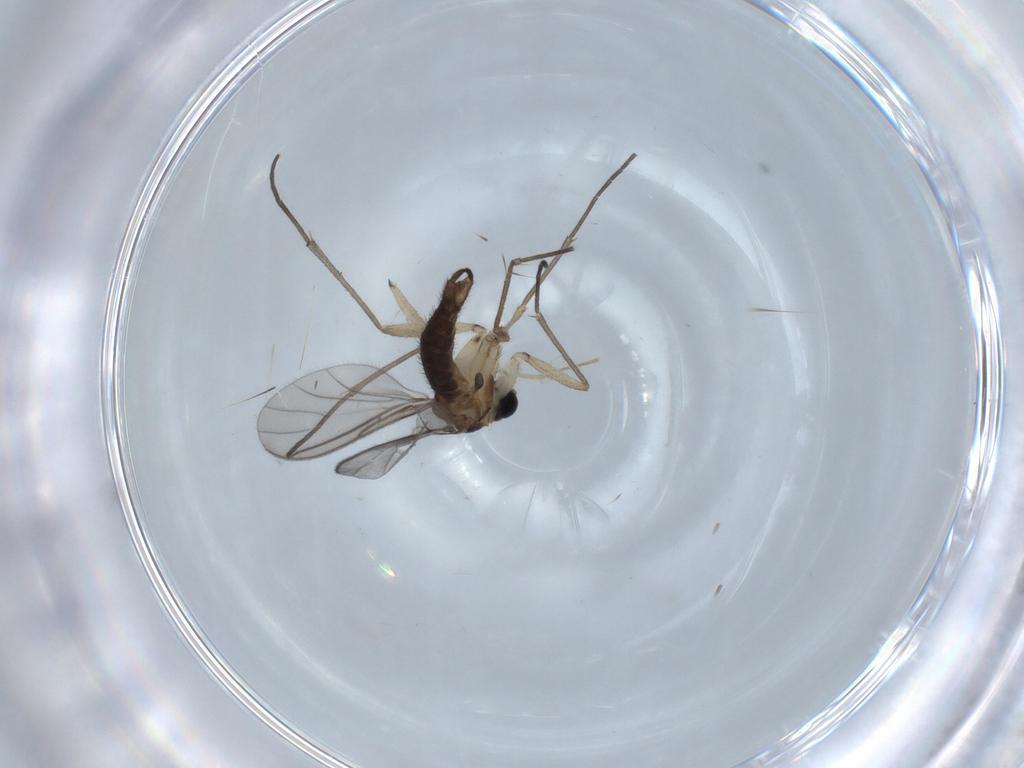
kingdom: Animalia
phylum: Arthropoda
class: Insecta
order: Diptera
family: Sciaridae
